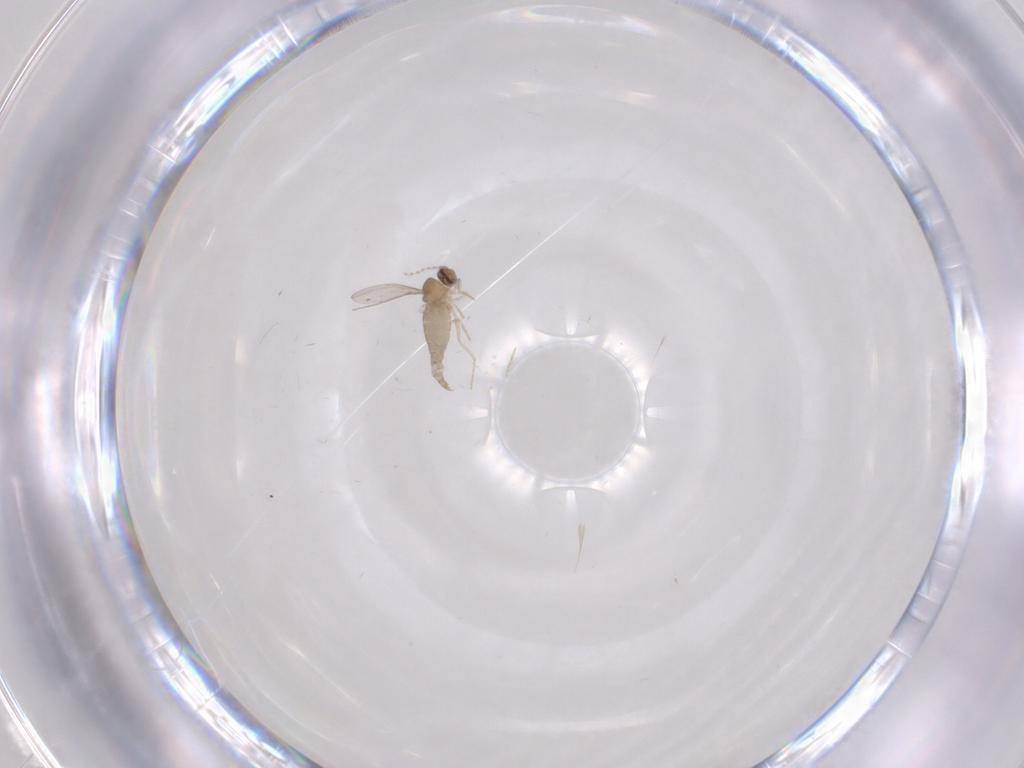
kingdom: Animalia
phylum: Arthropoda
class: Insecta
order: Diptera
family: Cecidomyiidae
